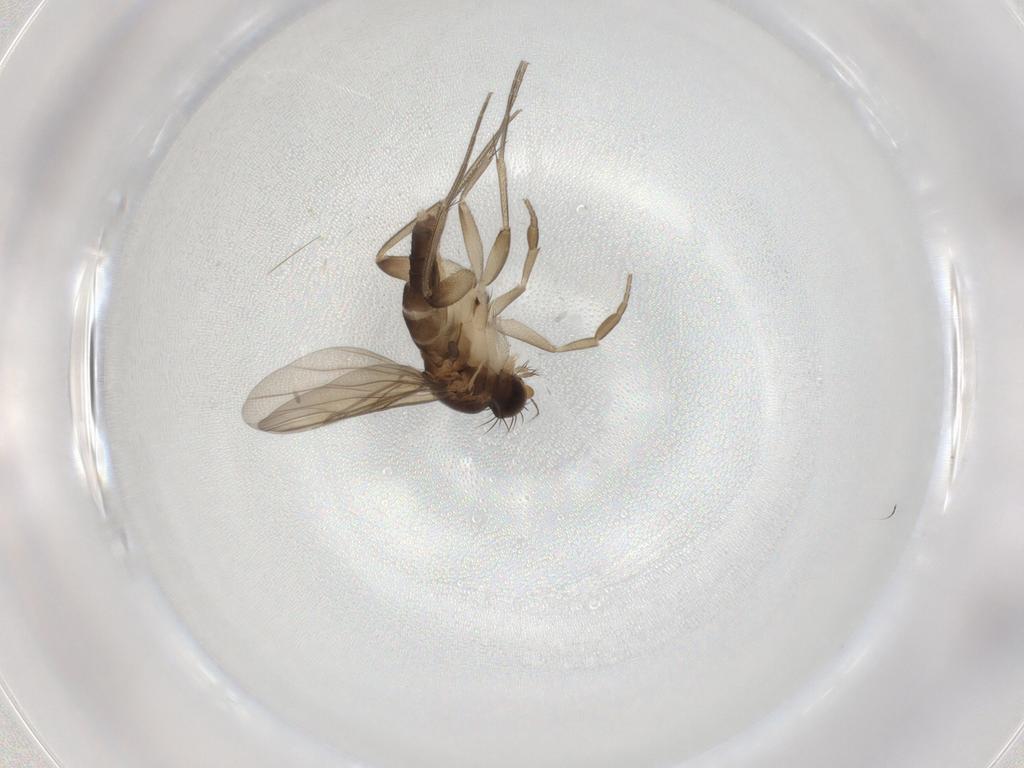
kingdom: Animalia
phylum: Arthropoda
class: Insecta
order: Diptera
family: Phoridae
